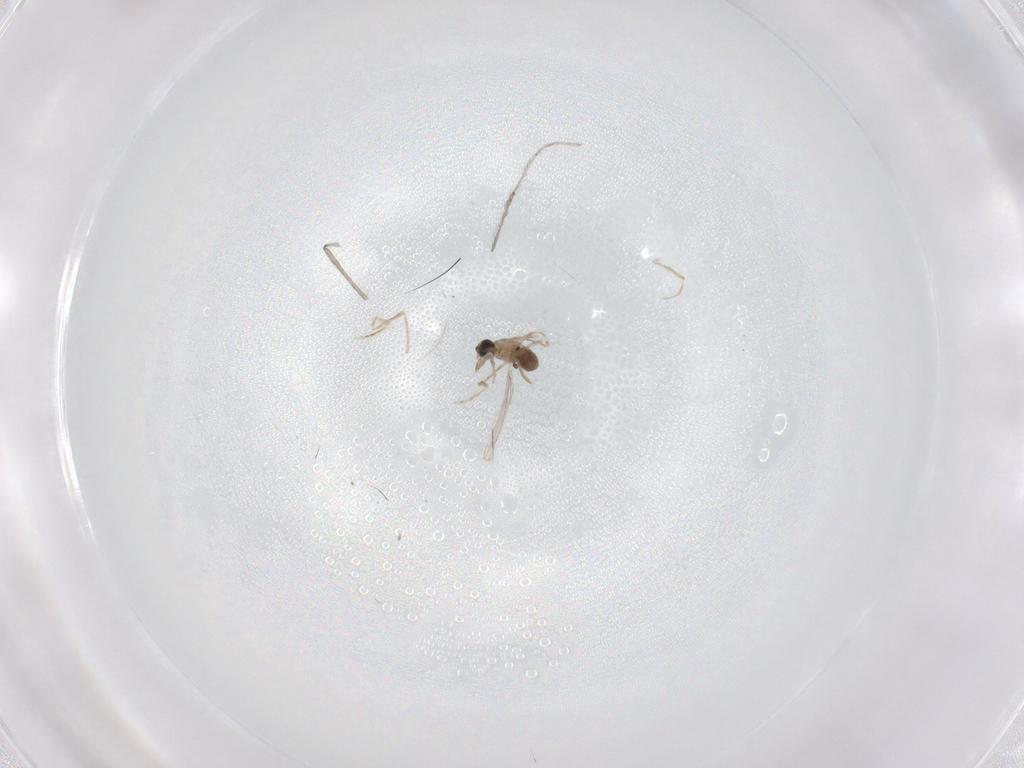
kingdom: Animalia
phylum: Arthropoda
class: Insecta
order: Diptera
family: Cecidomyiidae
